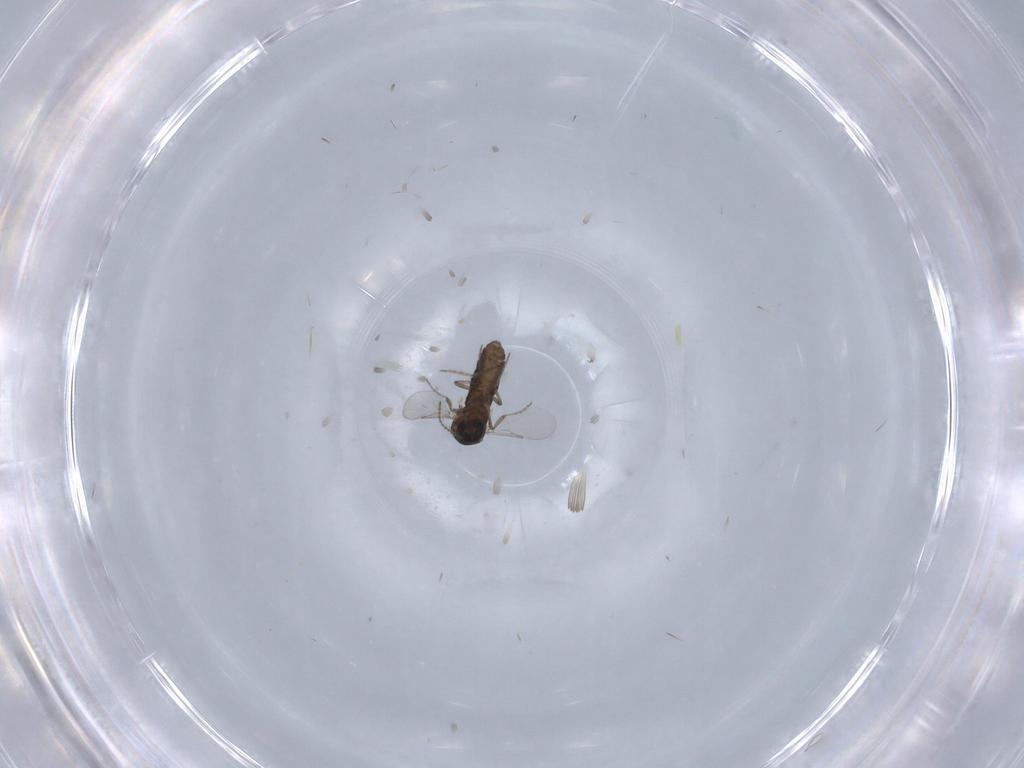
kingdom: Animalia
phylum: Arthropoda
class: Insecta
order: Diptera
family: Ceratopogonidae
